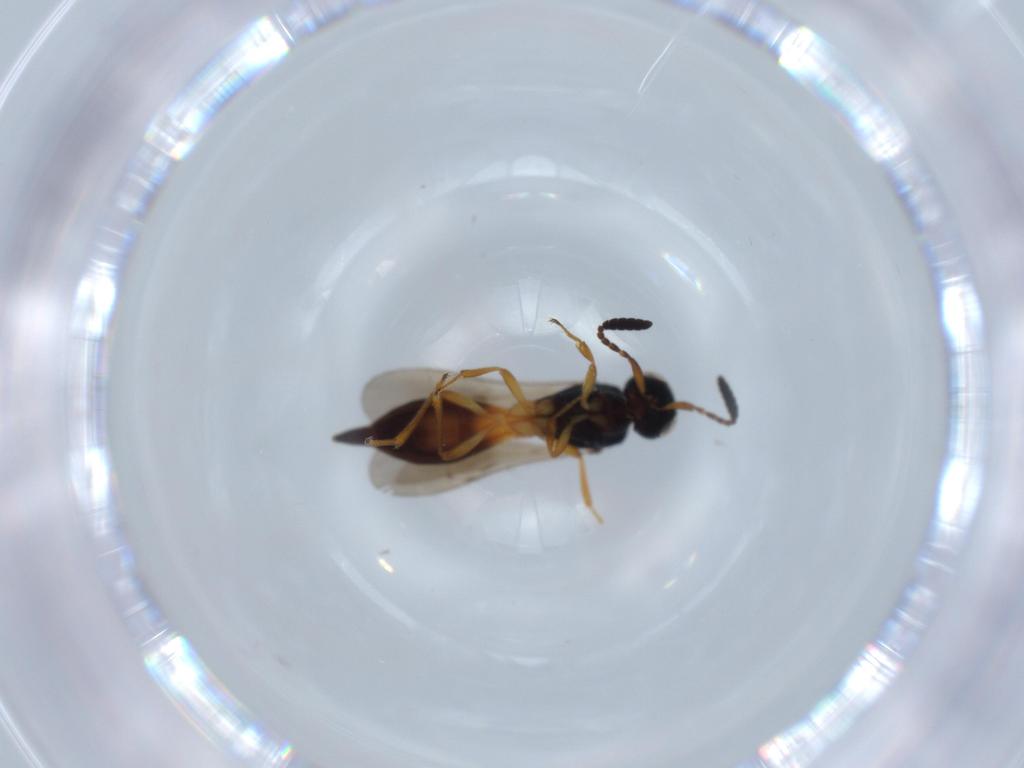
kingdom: Animalia
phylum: Arthropoda
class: Insecta
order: Hymenoptera
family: Scelionidae
